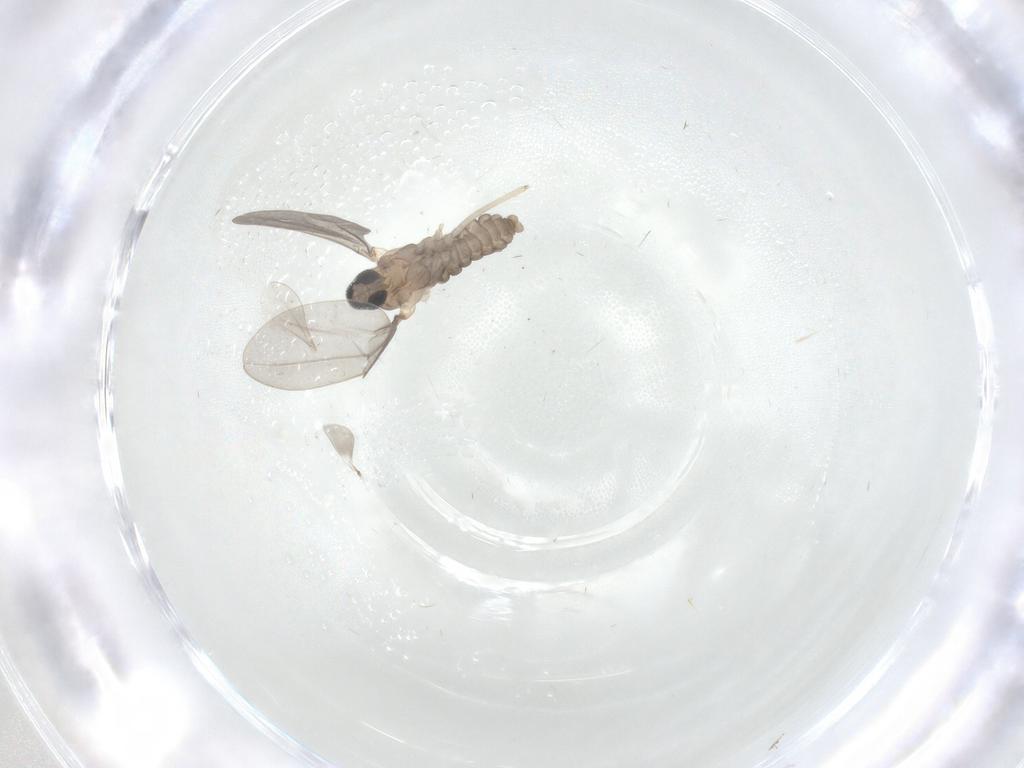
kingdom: Animalia
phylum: Arthropoda
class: Insecta
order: Diptera
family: Cecidomyiidae
